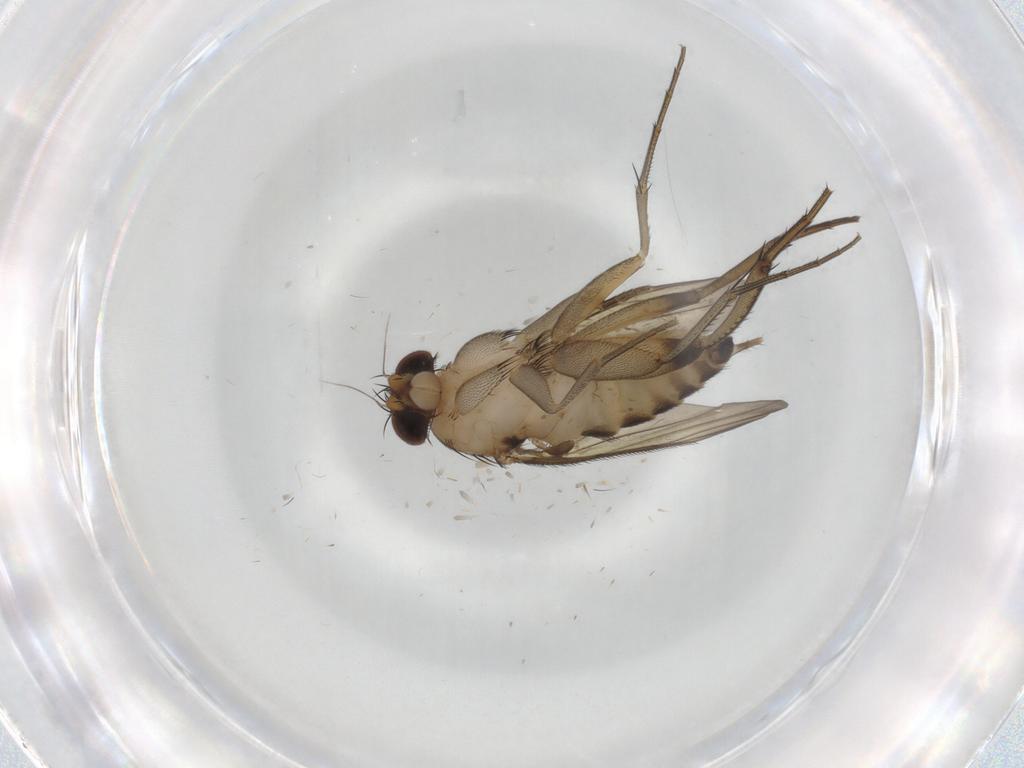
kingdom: Animalia
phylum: Arthropoda
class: Insecta
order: Diptera
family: Phoridae
